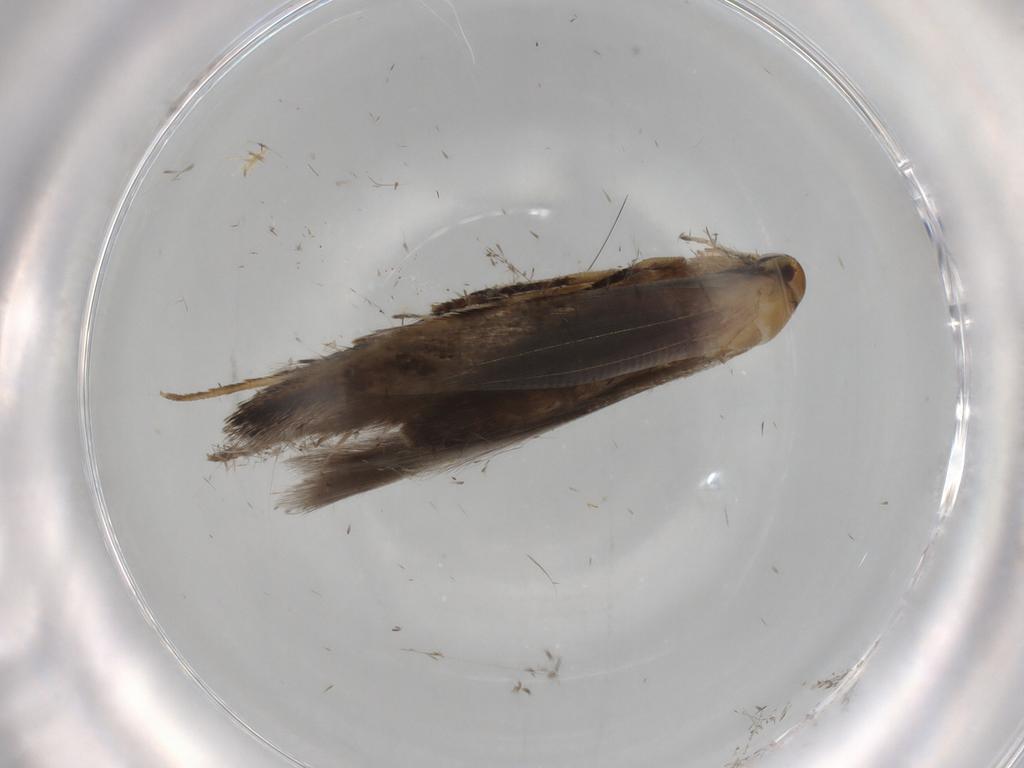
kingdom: Animalia
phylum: Arthropoda
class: Insecta
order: Lepidoptera
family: Cosmopterigidae
